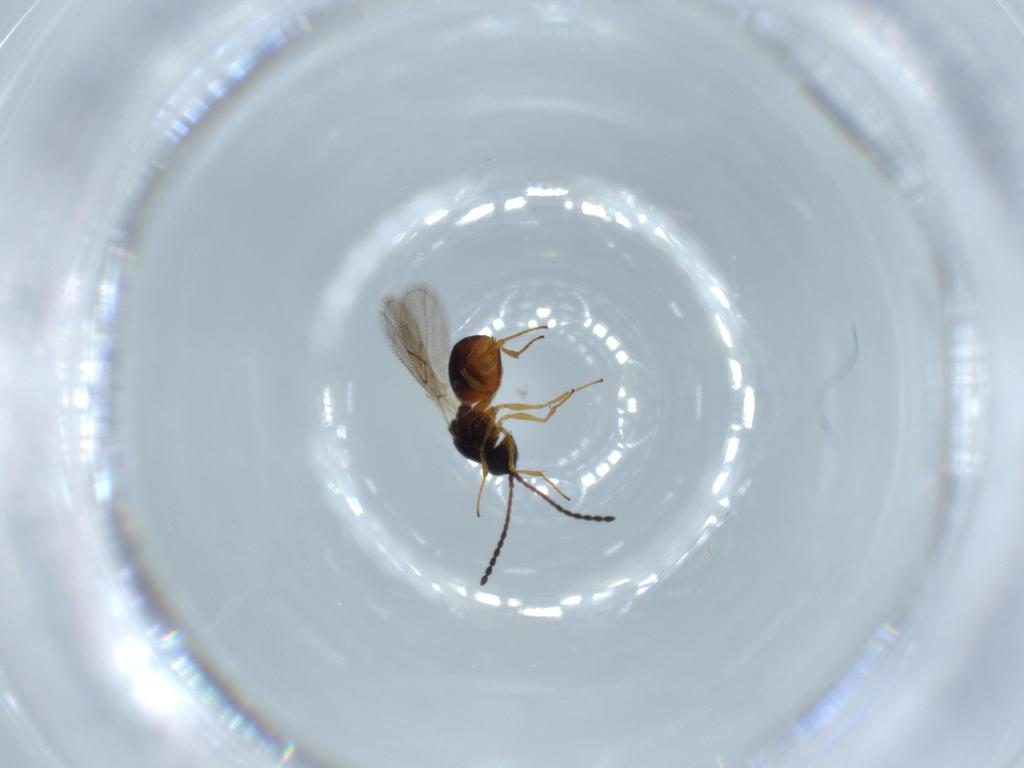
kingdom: Animalia
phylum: Arthropoda
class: Insecta
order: Hymenoptera
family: Figitidae
